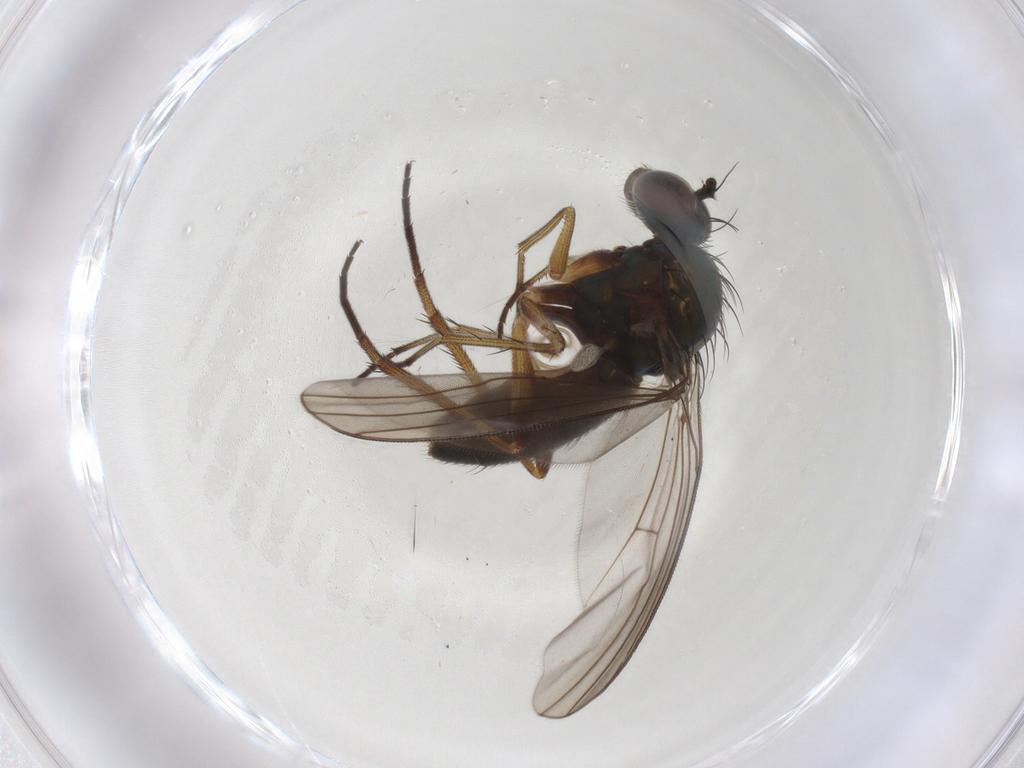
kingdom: Animalia
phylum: Arthropoda
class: Insecta
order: Diptera
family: Dolichopodidae
